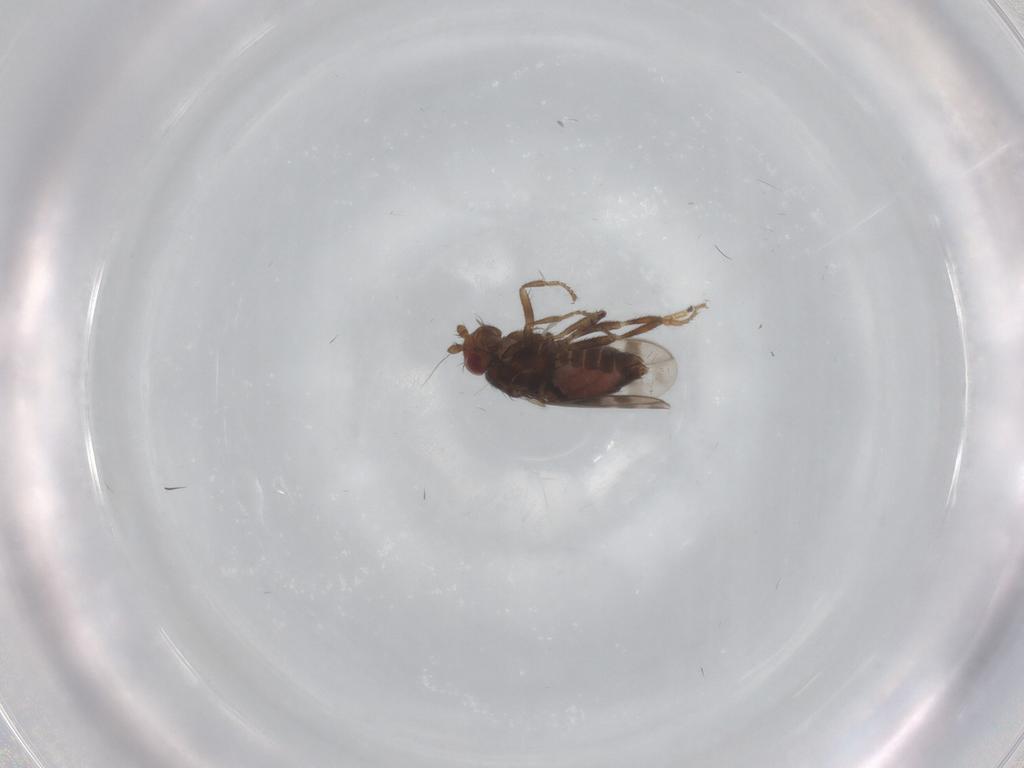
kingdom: Animalia
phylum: Arthropoda
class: Insecta
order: Diptera
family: Sphaeroceridae
